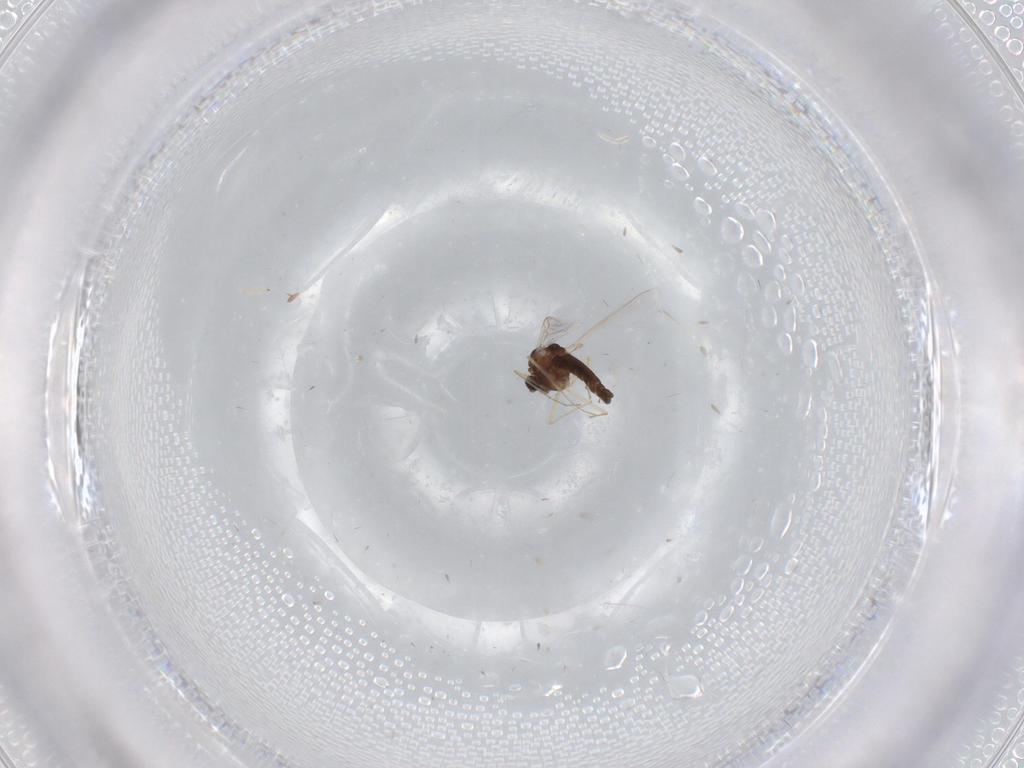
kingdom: Animalia
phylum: Arthropoda
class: Insecta
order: Diptera
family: Chironomidae
